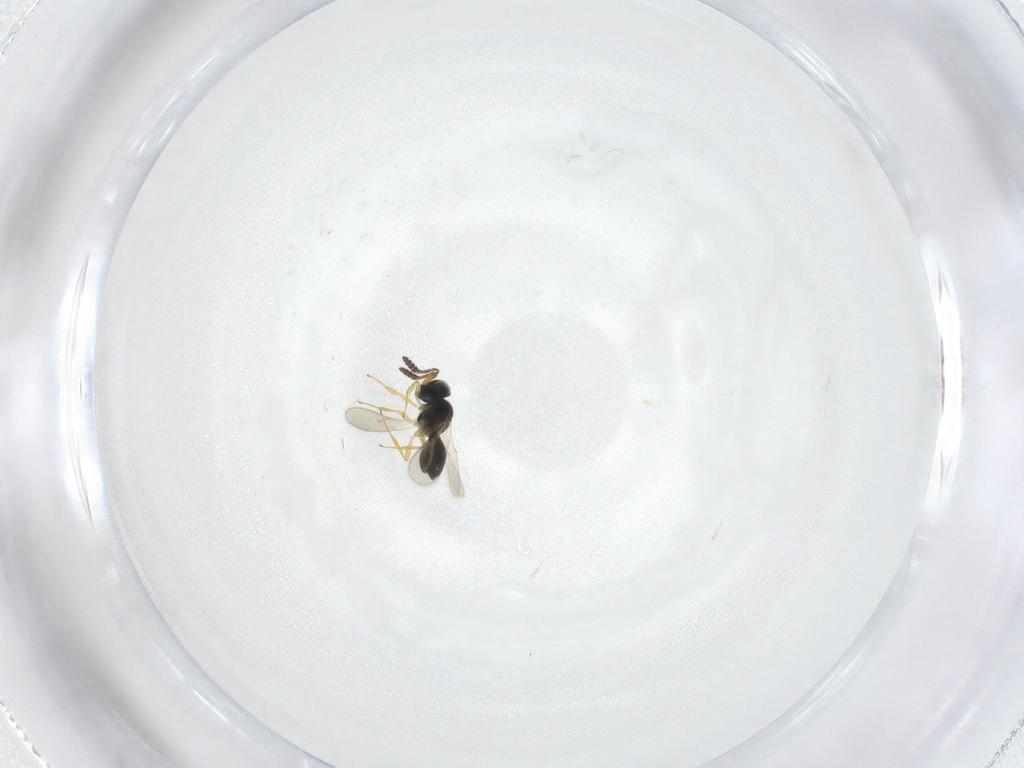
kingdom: Animalia
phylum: Arthropoda
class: Insecta
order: Hymenoptera
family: Scelionidae
